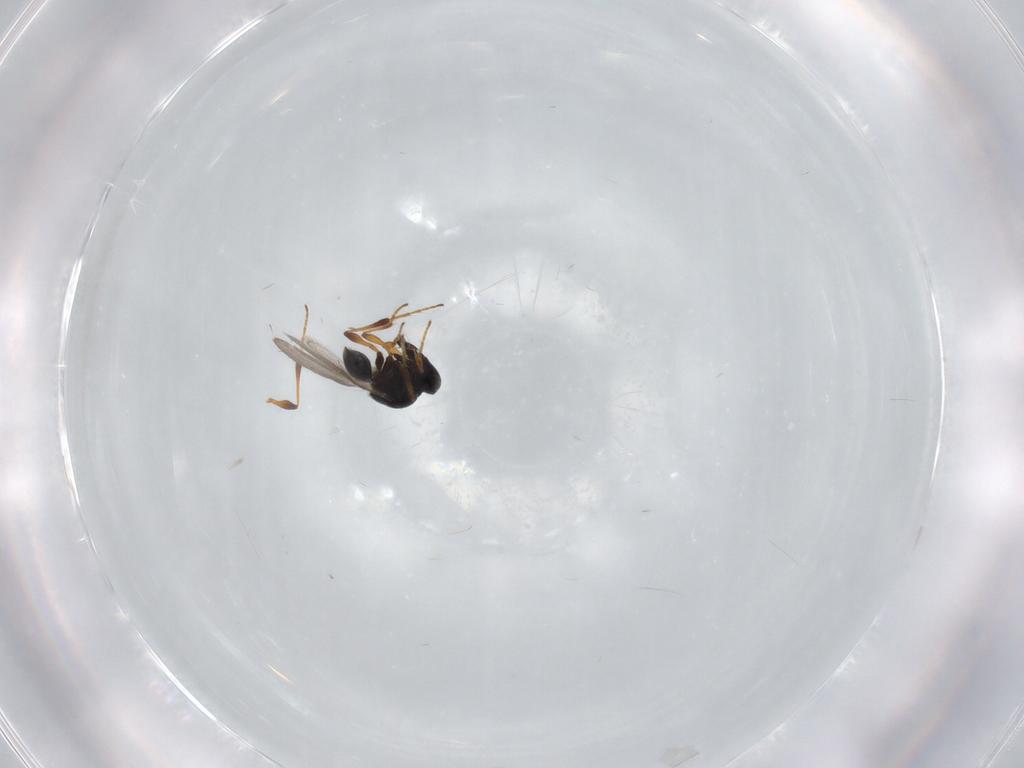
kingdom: Animalia
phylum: Arthropoda
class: Insecta
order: Hymenoptera
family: Platygastridae
